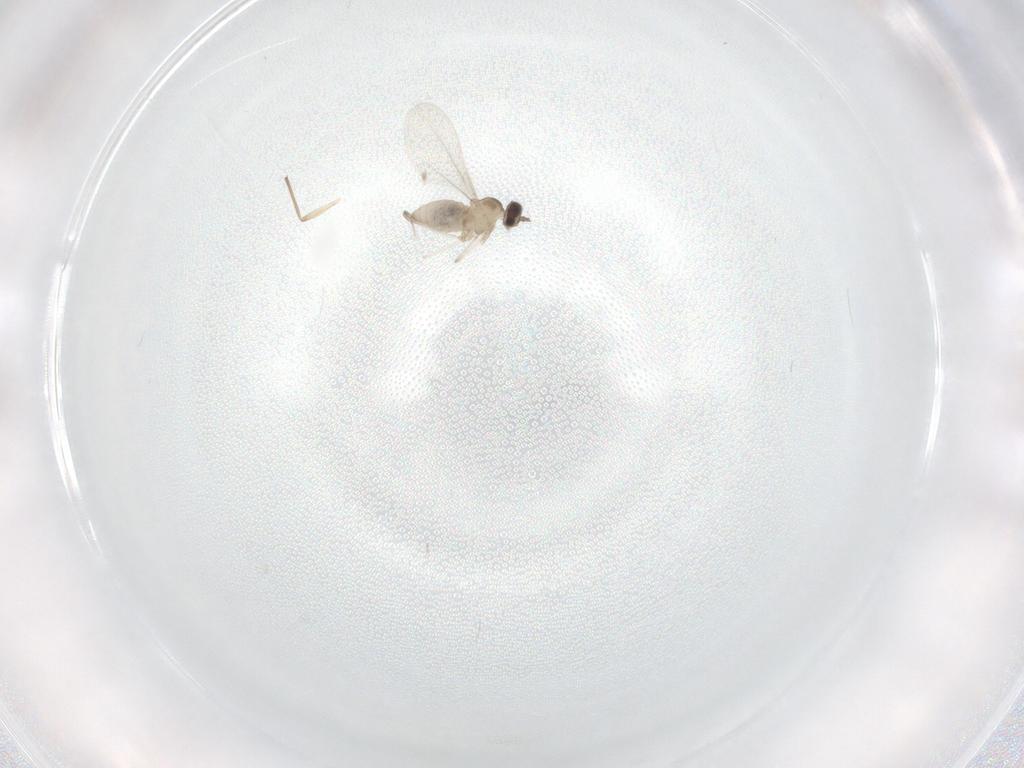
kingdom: Animalia
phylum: Arthropoda
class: Insecta
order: Diptera
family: Cecidomyiidae
